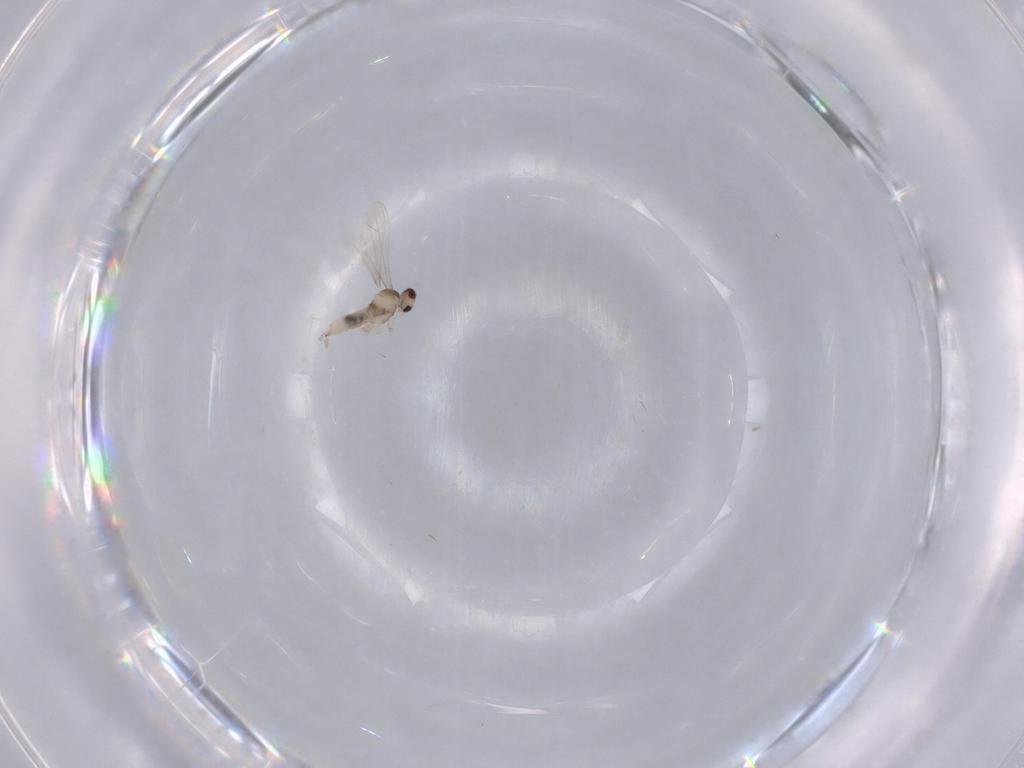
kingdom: Animalia
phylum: Arthropoda
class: Insecta
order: Diptera
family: Cecidomyiidae
